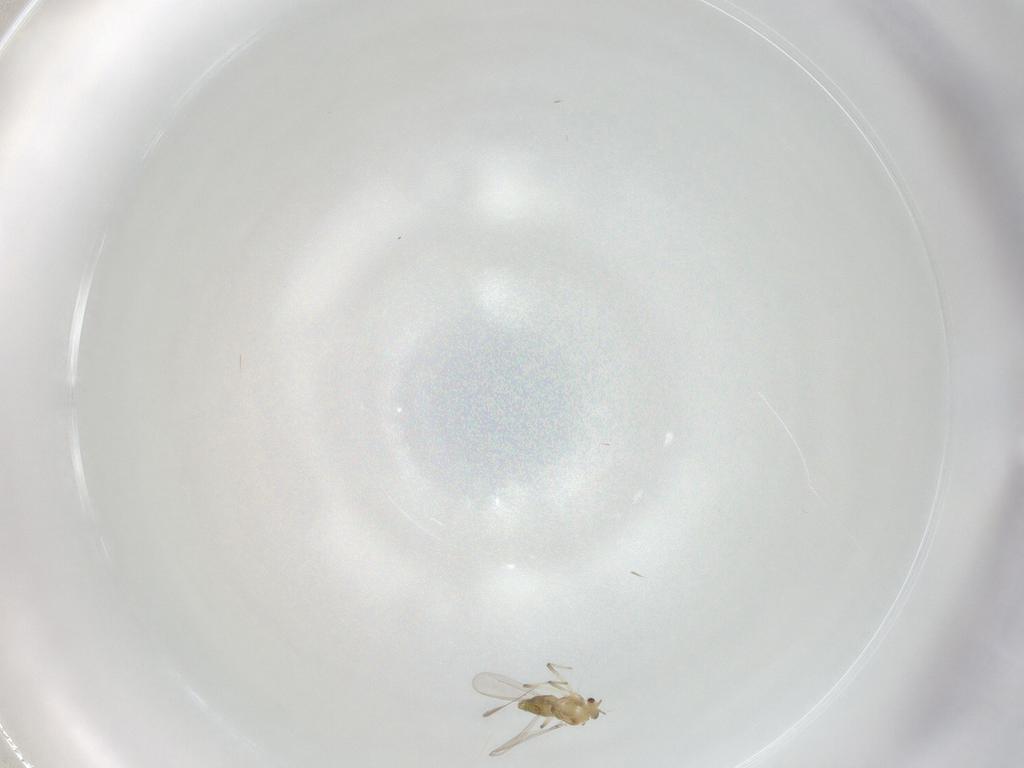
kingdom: Animalia
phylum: Arthropoda
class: Insecta
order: Diptera
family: Chironomidae
